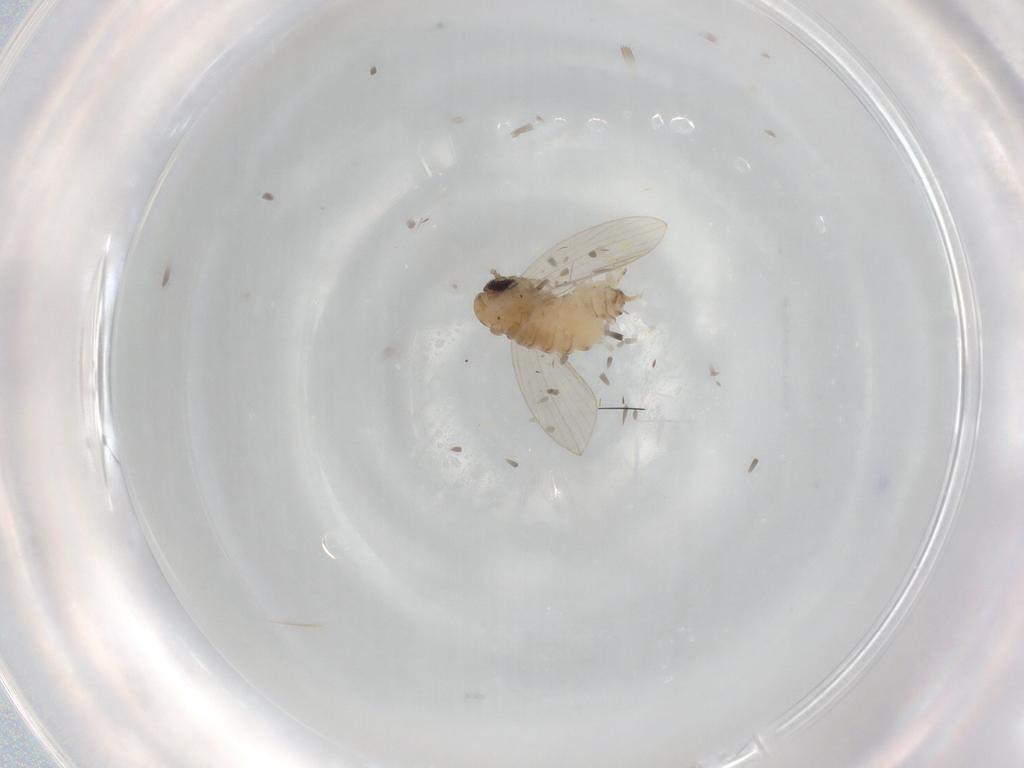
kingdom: Animalia
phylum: Arthropoda
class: Insecta
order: Diptera
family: Psychodidae
